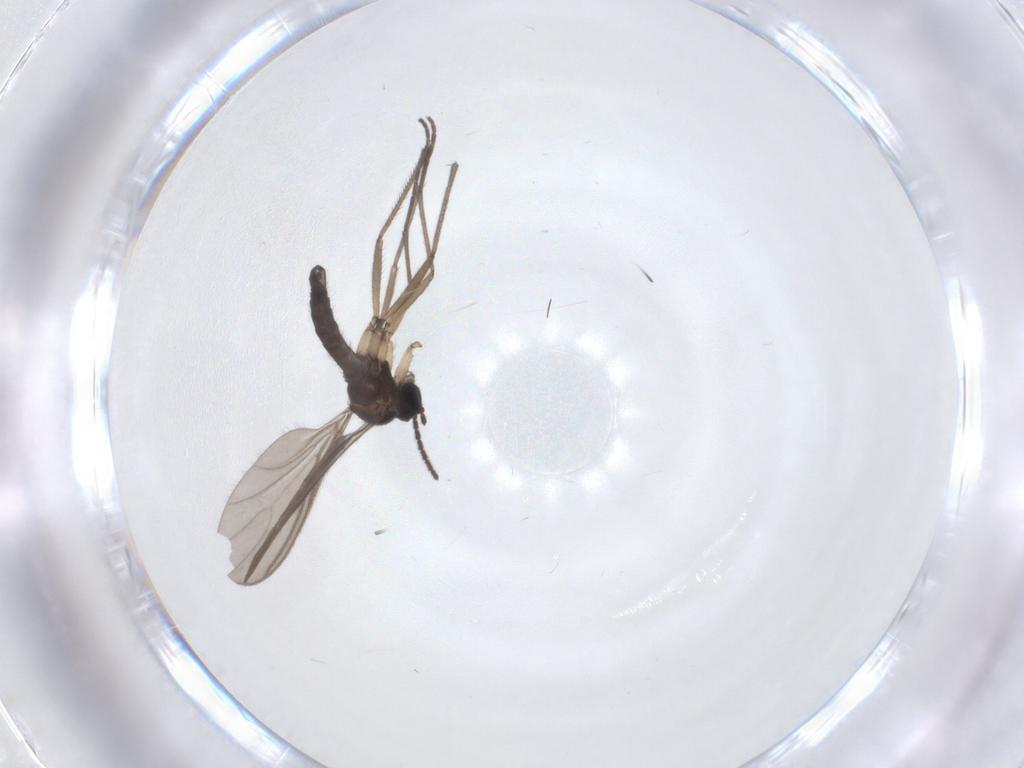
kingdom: Animalia
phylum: Arthropoda
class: Insecta
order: Diptera
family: Sciaridae
